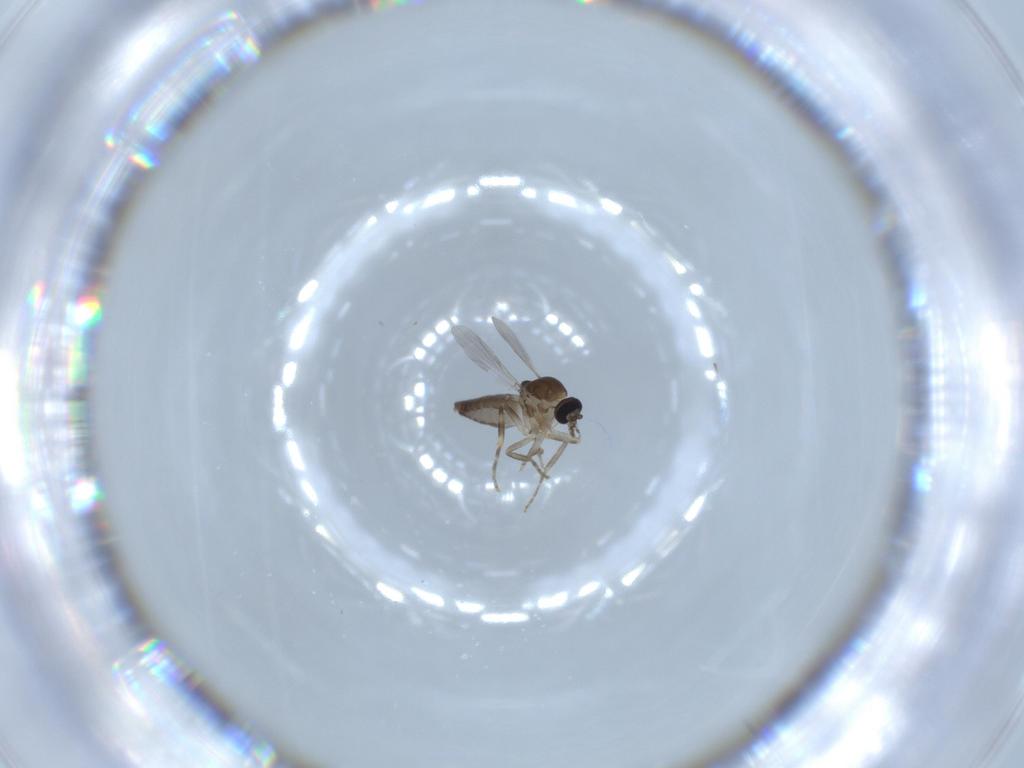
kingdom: Animalia
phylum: Arthropoda
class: Insecta
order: Diptera
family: Sciaridae
